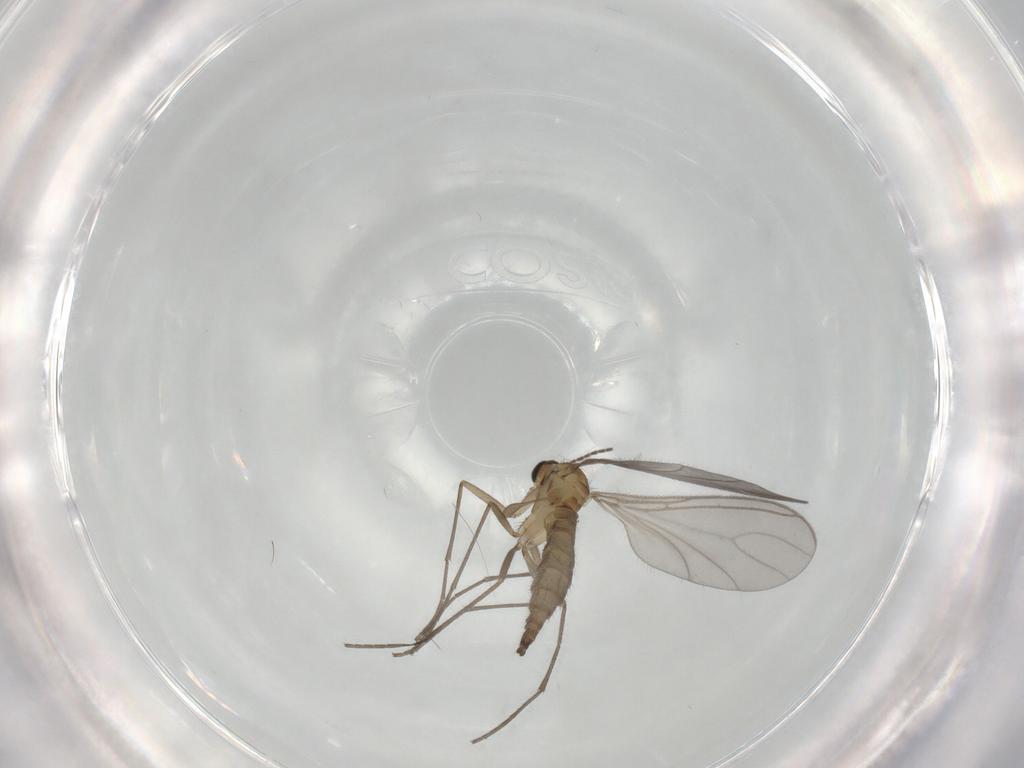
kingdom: Animalia
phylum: Arthropoda
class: Insecta
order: Diptera
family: Sciaridae
